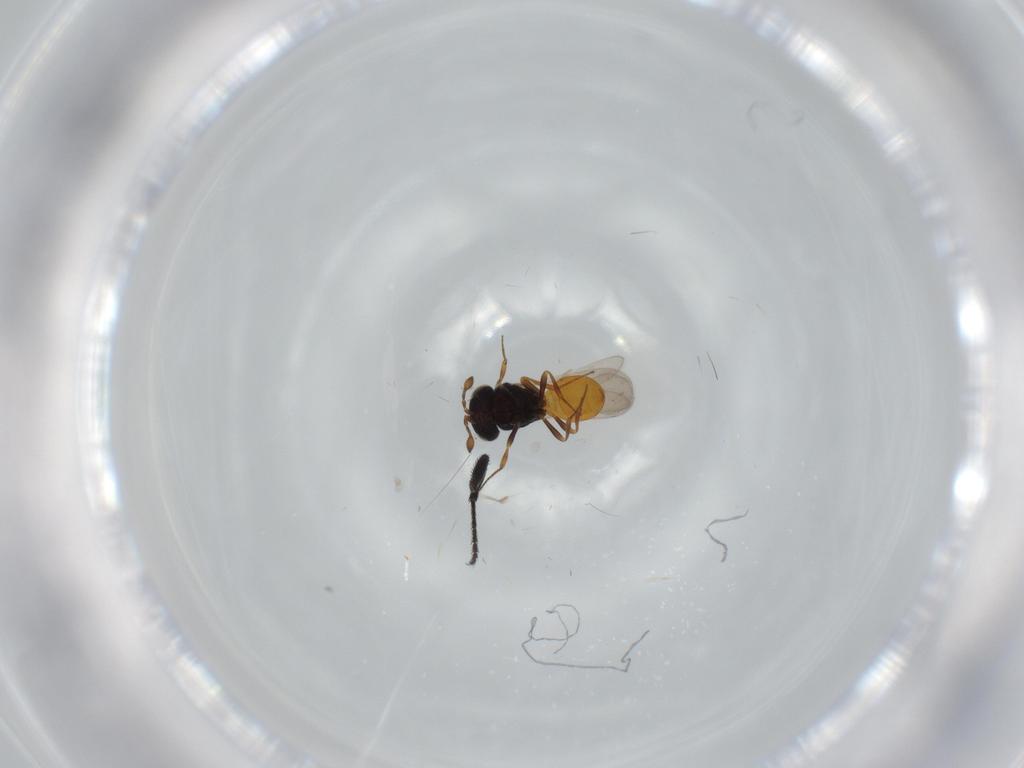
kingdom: Animalia
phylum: Arthropoda
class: Insecta
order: Hymenoptera
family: Scelionidae
